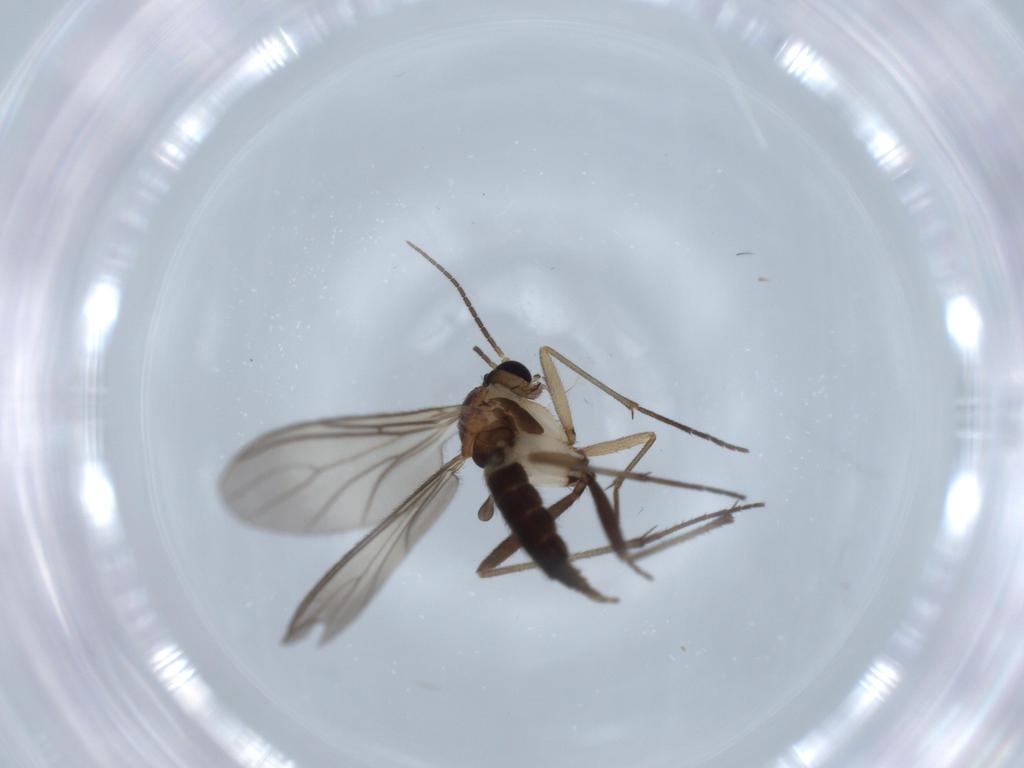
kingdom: Animalia
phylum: Arthropoda
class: Insecta
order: Diptera
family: Sciaridae
